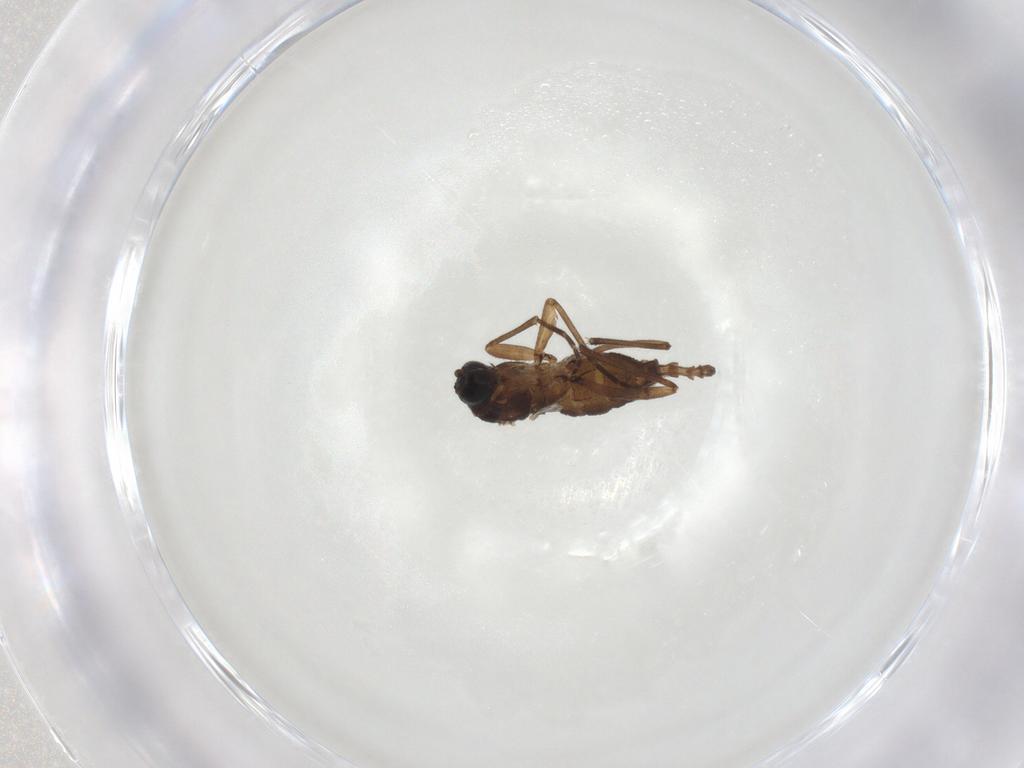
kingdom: Animalia
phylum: Arthropoda
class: Insecta
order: Diptera
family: Sciaridae
